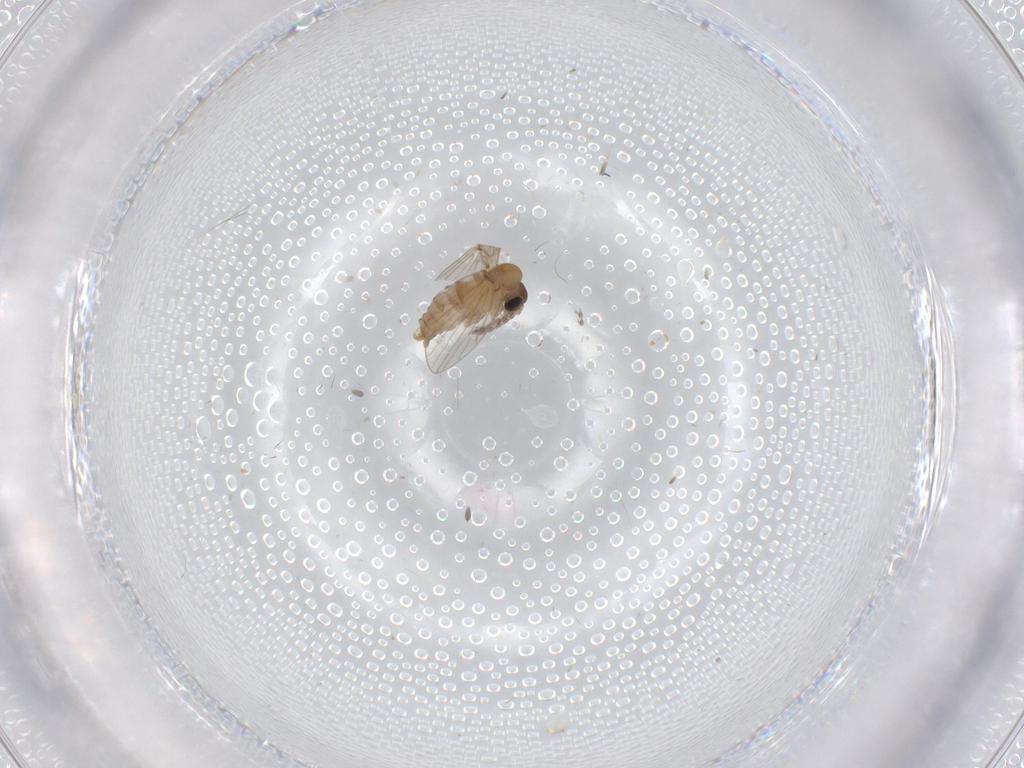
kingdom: Animalia
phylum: Arthropoda
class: Insecta
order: Diptera
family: Psychodidae
